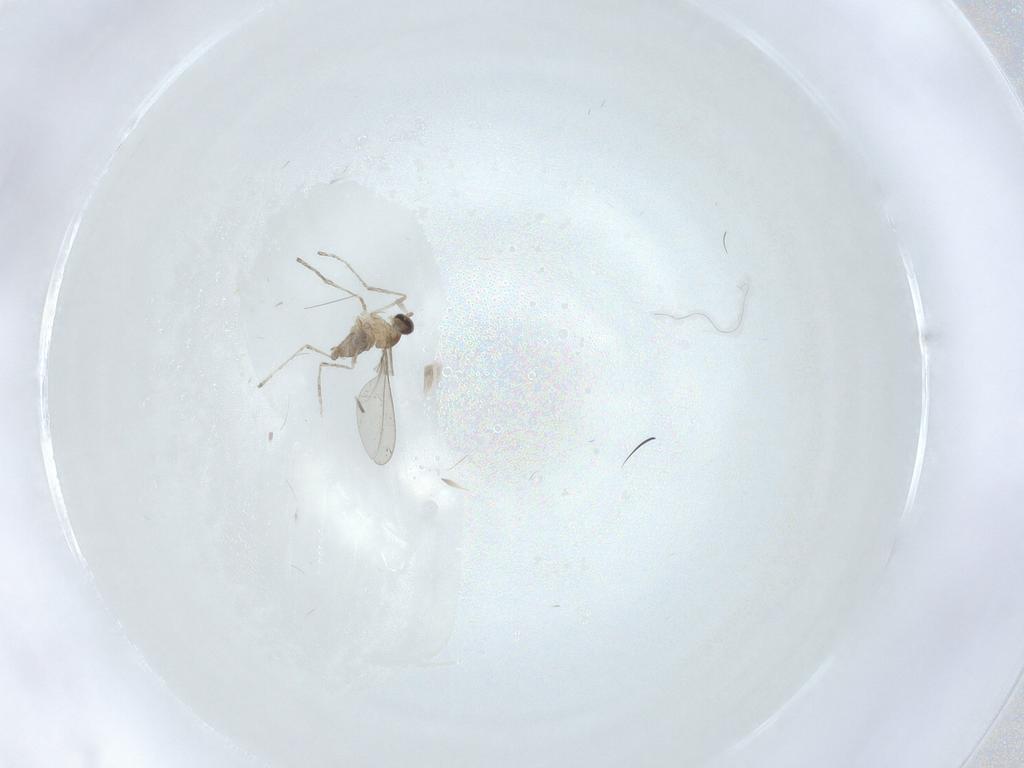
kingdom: Animalia
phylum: Arthropoda
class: Insecta
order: Diptera
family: Cecidomyiidae
